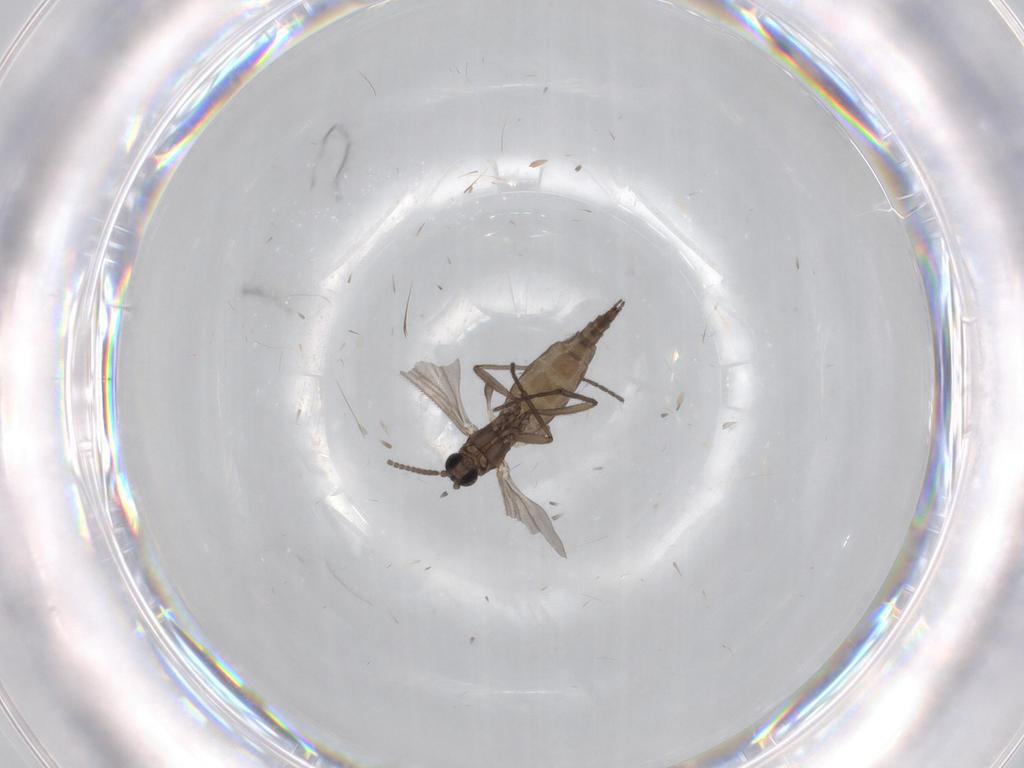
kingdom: Animalia
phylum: Arthropoda
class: Insecta
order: Diptera
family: Sciaridae
